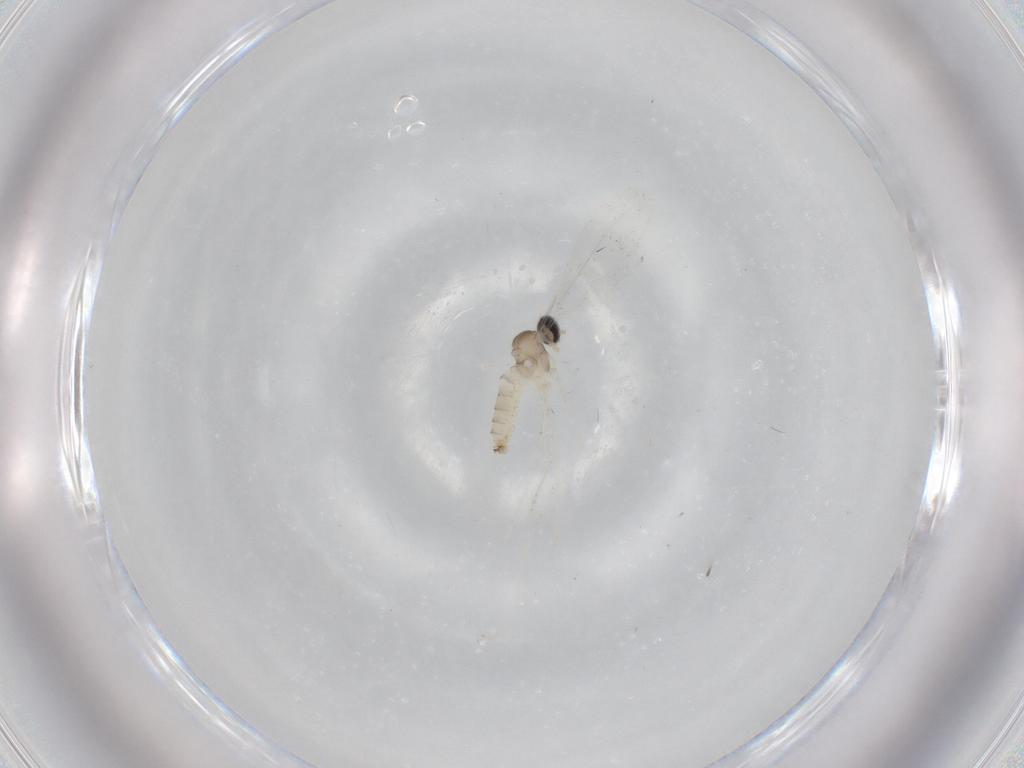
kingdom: Animalia
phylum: Arthropoda
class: Insecta
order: Diptera
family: Cecidomyiidae
